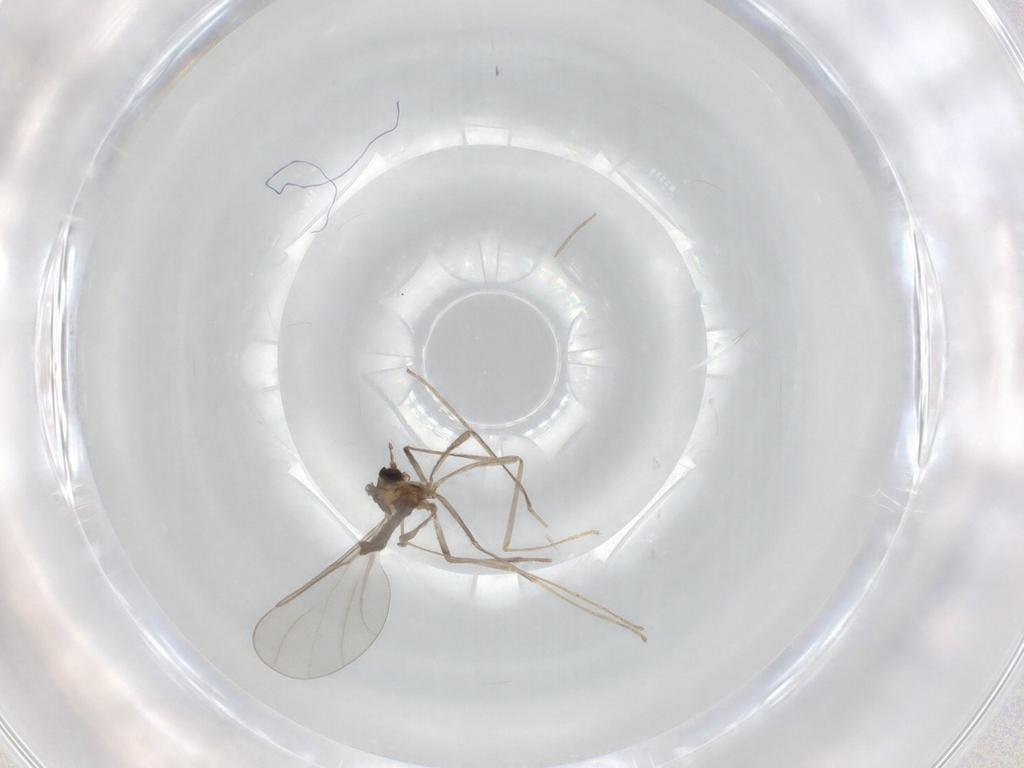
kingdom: Animalia
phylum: Arthropoda
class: Insecta
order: Diptera
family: Cecidomyiidae
